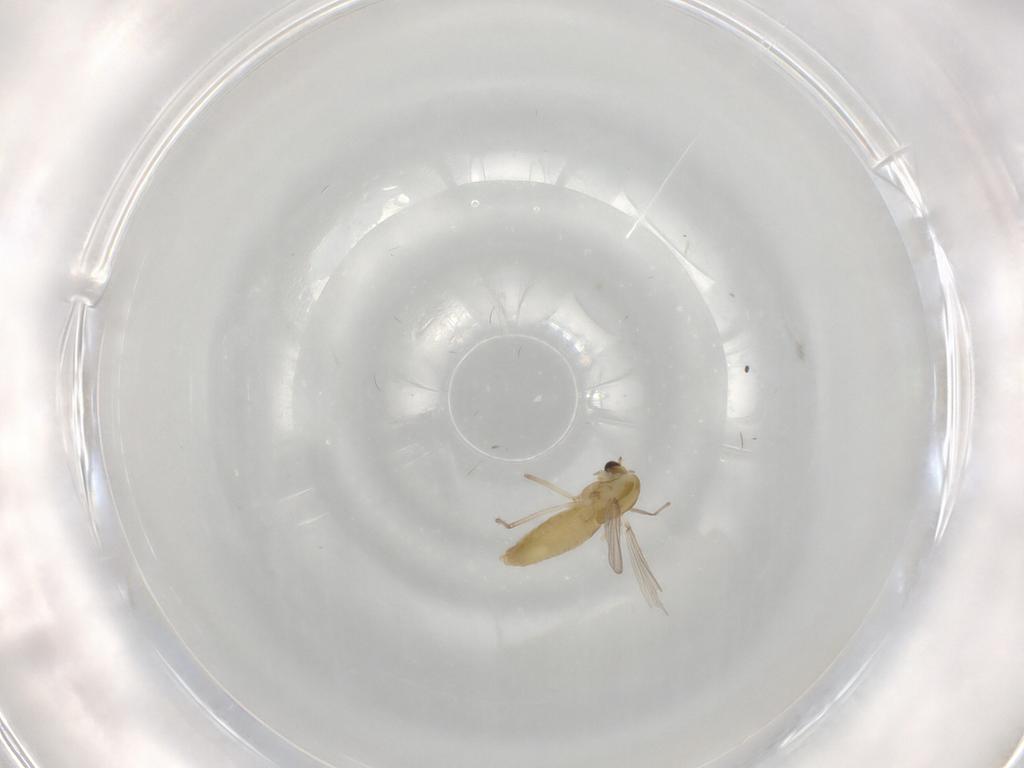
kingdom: Animalia
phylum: Arthropoda
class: Insecta
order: Diptera
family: Chironomidae
